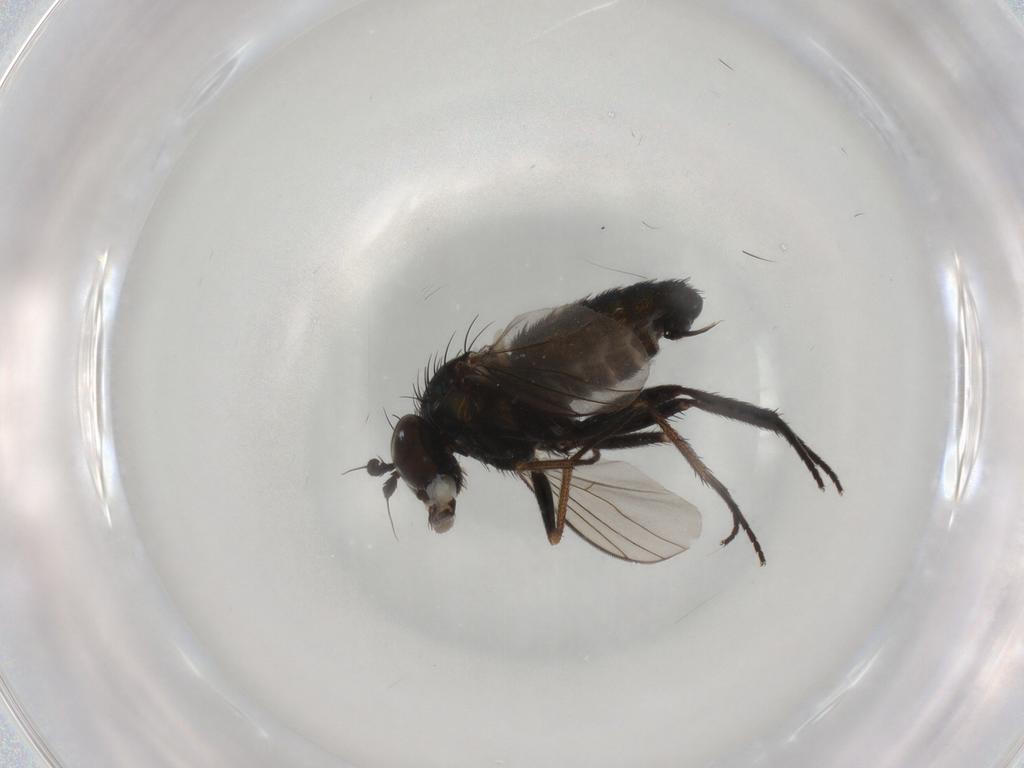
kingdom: Animalia
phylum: Arthropoda
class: Insecta
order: Diptera
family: Dolichopodidae
